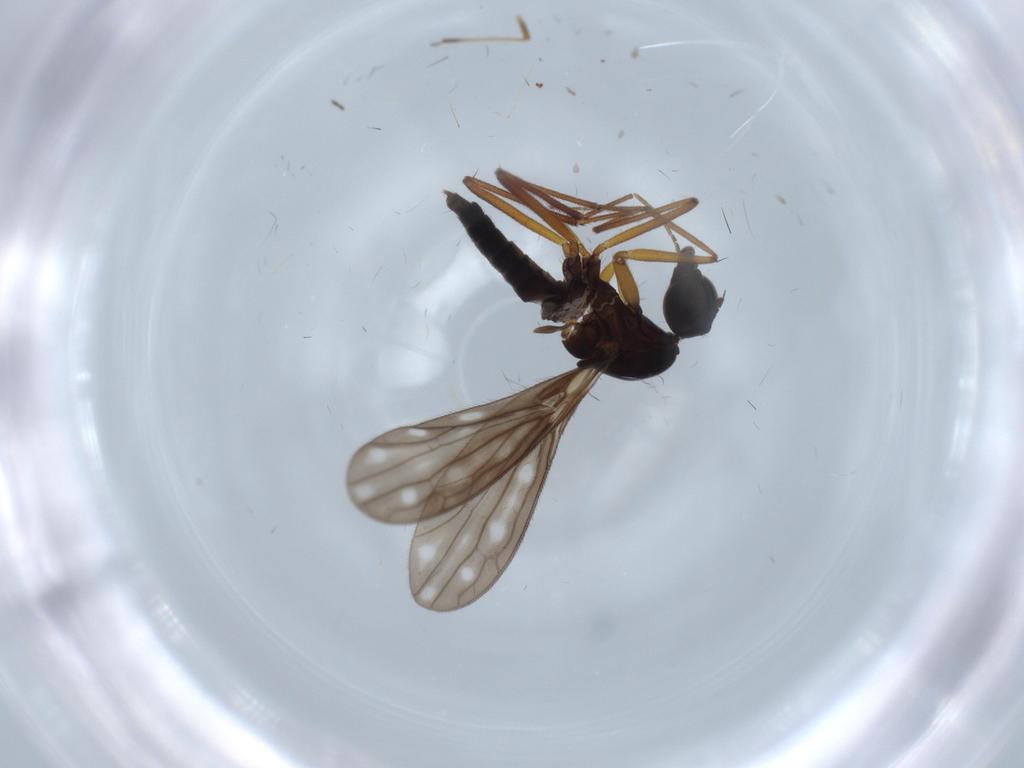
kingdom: Animalia
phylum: Arthropoda
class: Insecta
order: Diptera
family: Empididae
